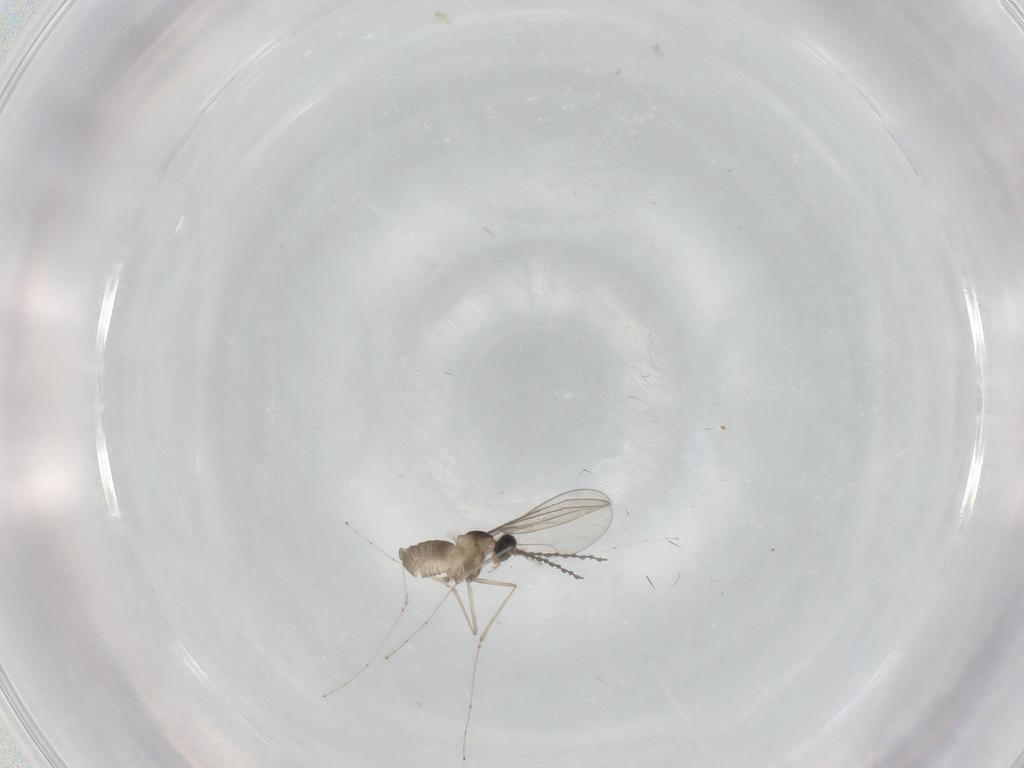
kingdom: Animalia
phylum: Arthropoda
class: Insecta
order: Diptera
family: Cecidomyiidae
